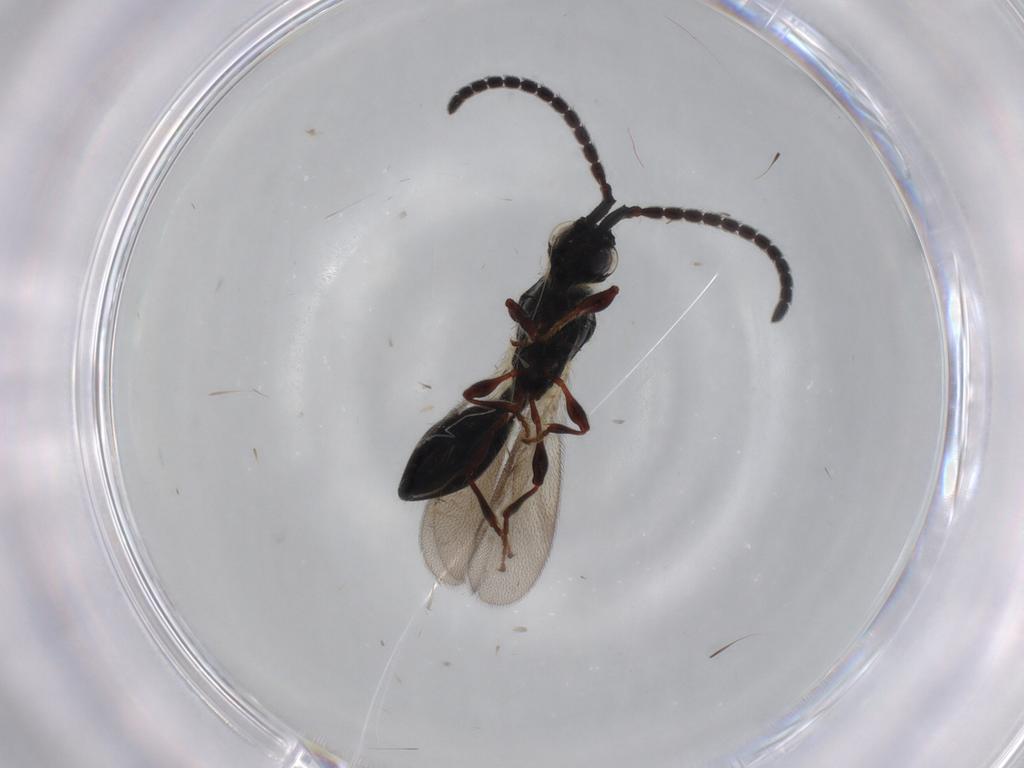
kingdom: Animalia
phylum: Arthropoda
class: Insecta
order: Hymenoptera
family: Diapriidae
